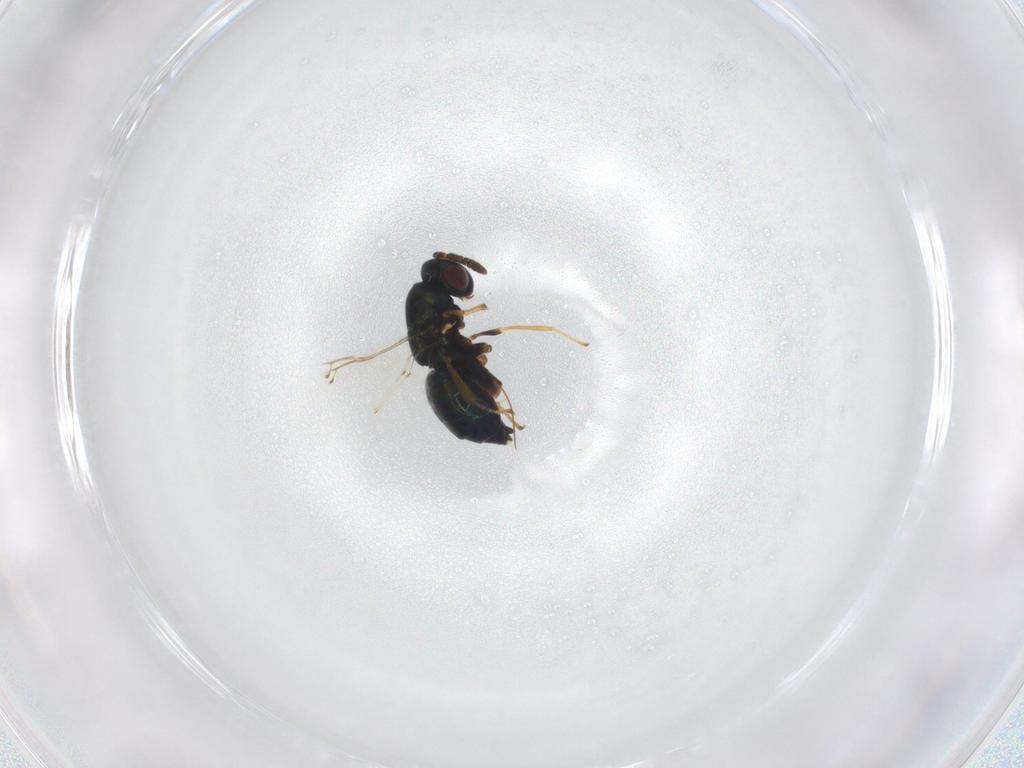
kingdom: Animalia
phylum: Arthropoda
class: Insecta
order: Hymenoptera
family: Pteromalidae
